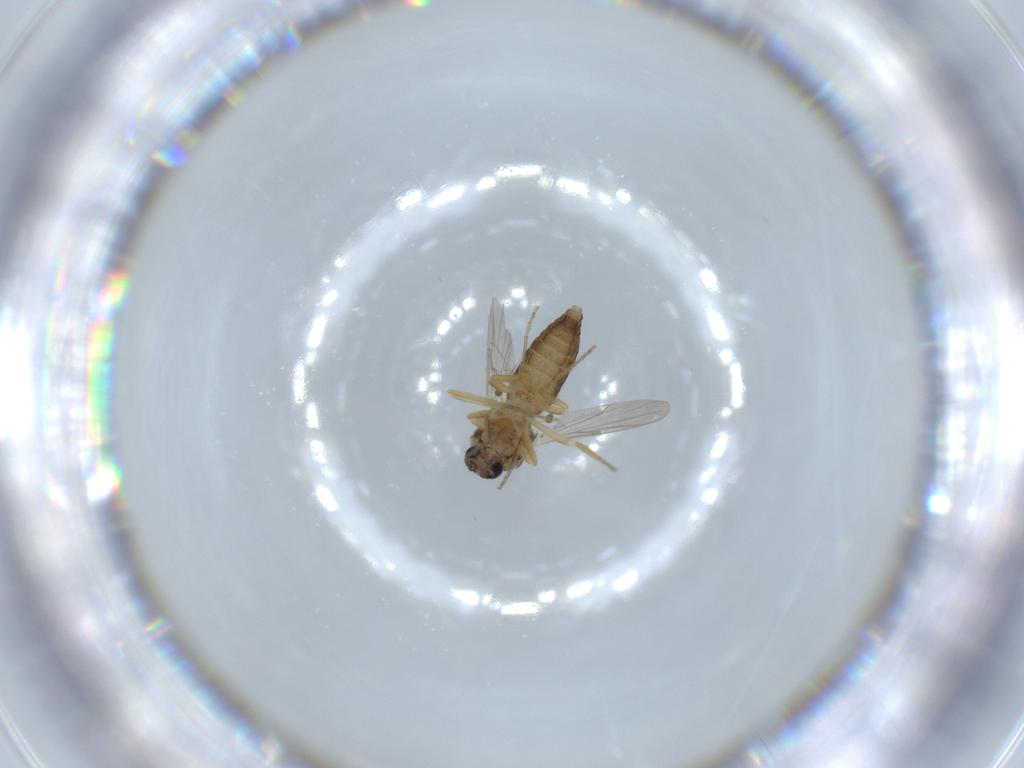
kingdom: Animalia
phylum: Arthropoda
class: Insecta
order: Diptera
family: Ceratopogonidae
